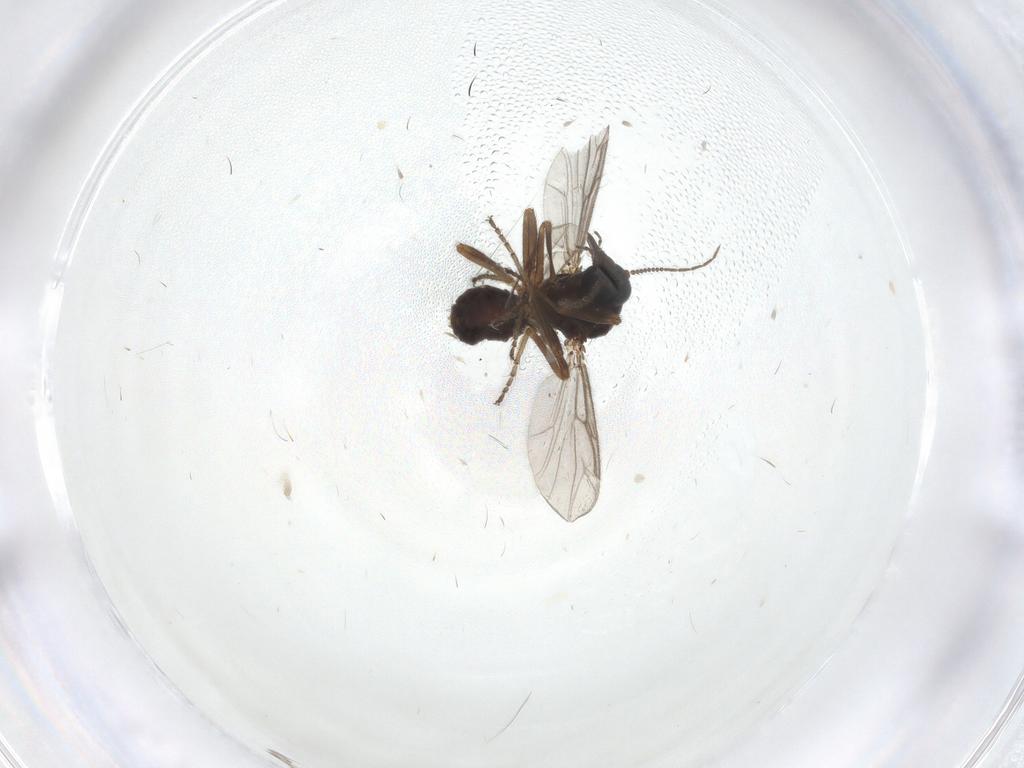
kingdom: Animalia
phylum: Arthropoda
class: Insecta
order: Diptera
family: Ceratopogonidae
